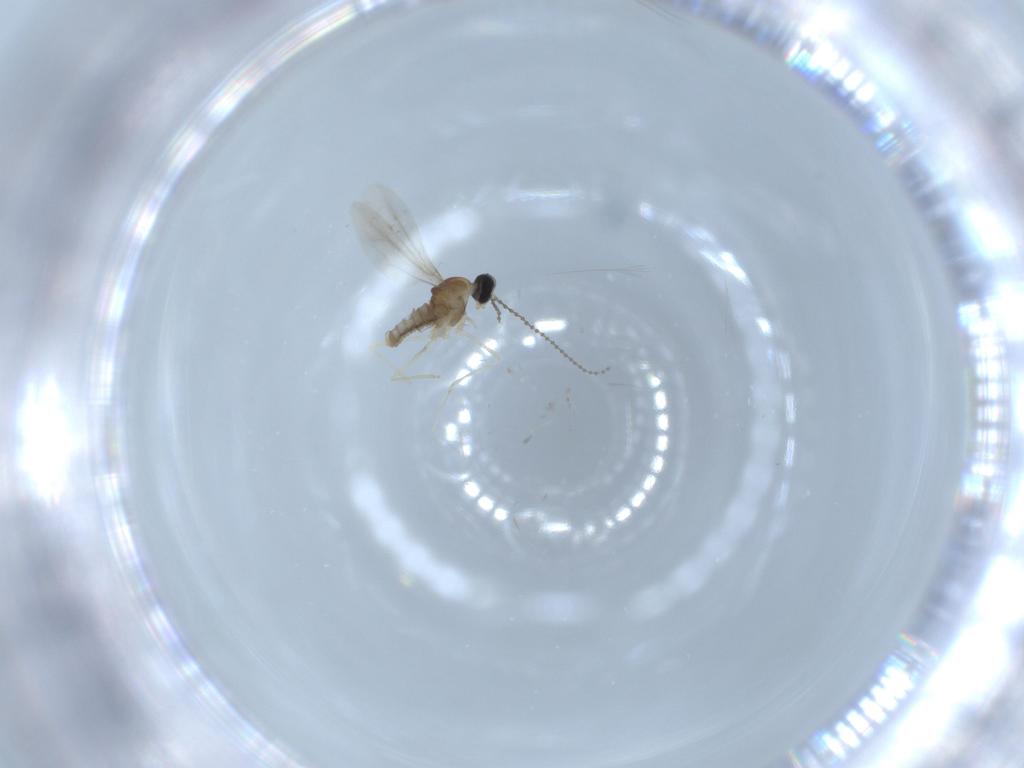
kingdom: Animalia
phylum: Arthropoda
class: Insecta
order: Diptera
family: Cecidomyiidae
